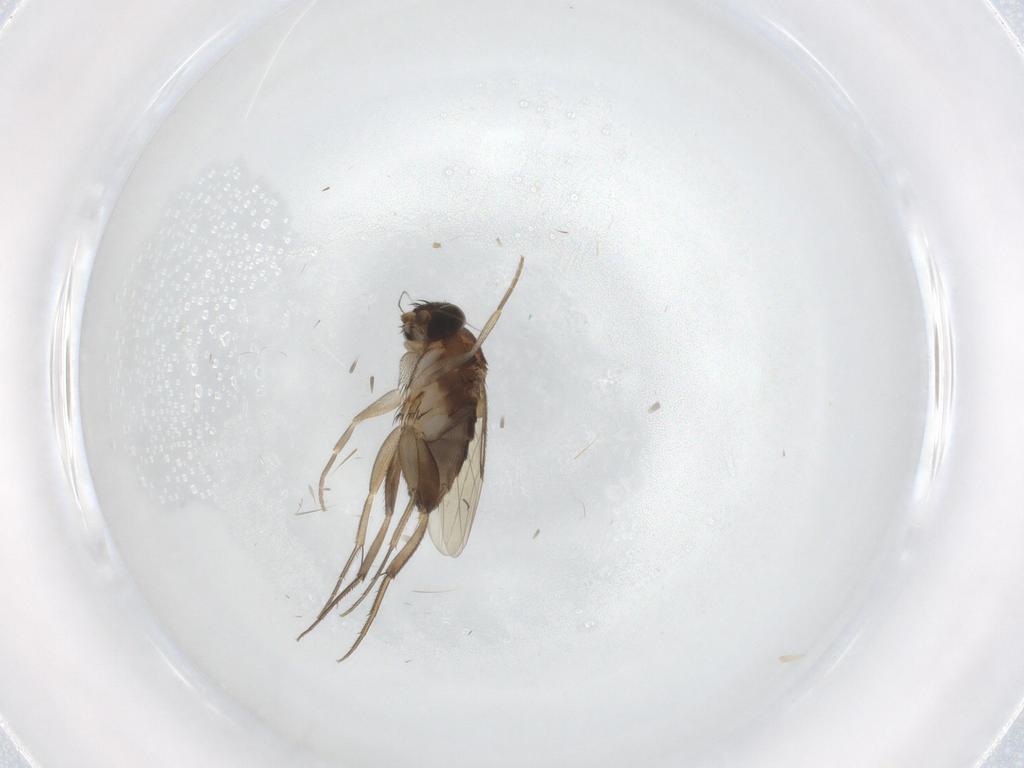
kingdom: Animalia
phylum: Arthropoda
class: Insecta
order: Diptera
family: Phoridae
